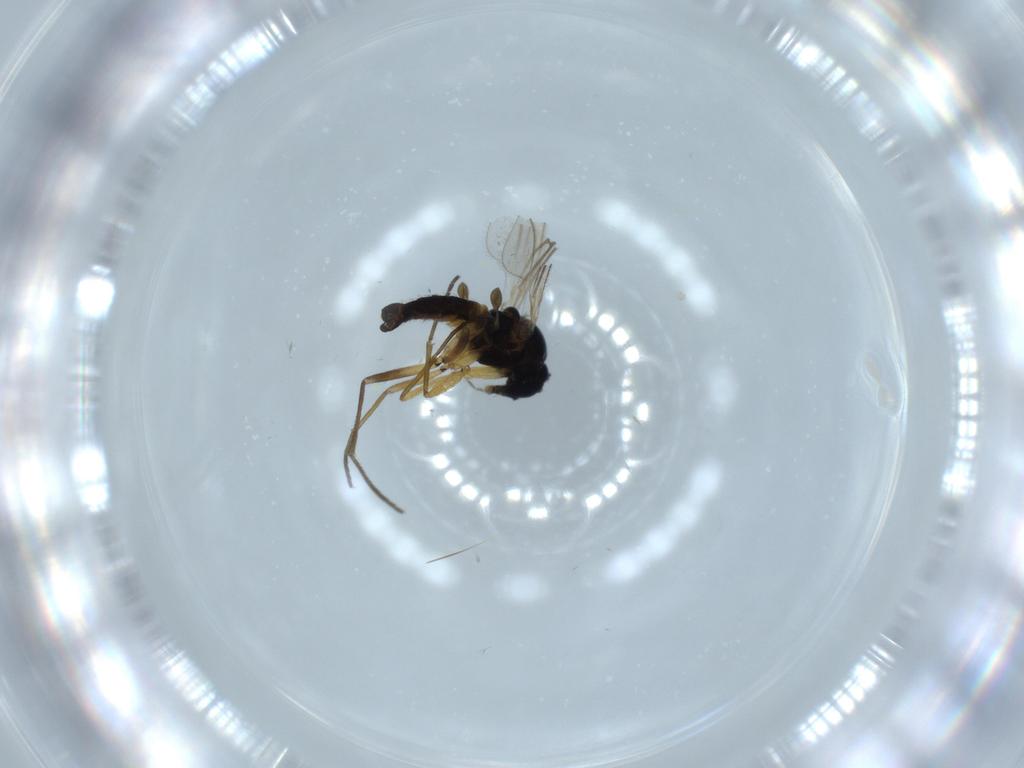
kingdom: Animalia
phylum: Arthropoda
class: Insecta
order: Diptera
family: Sciaridae
